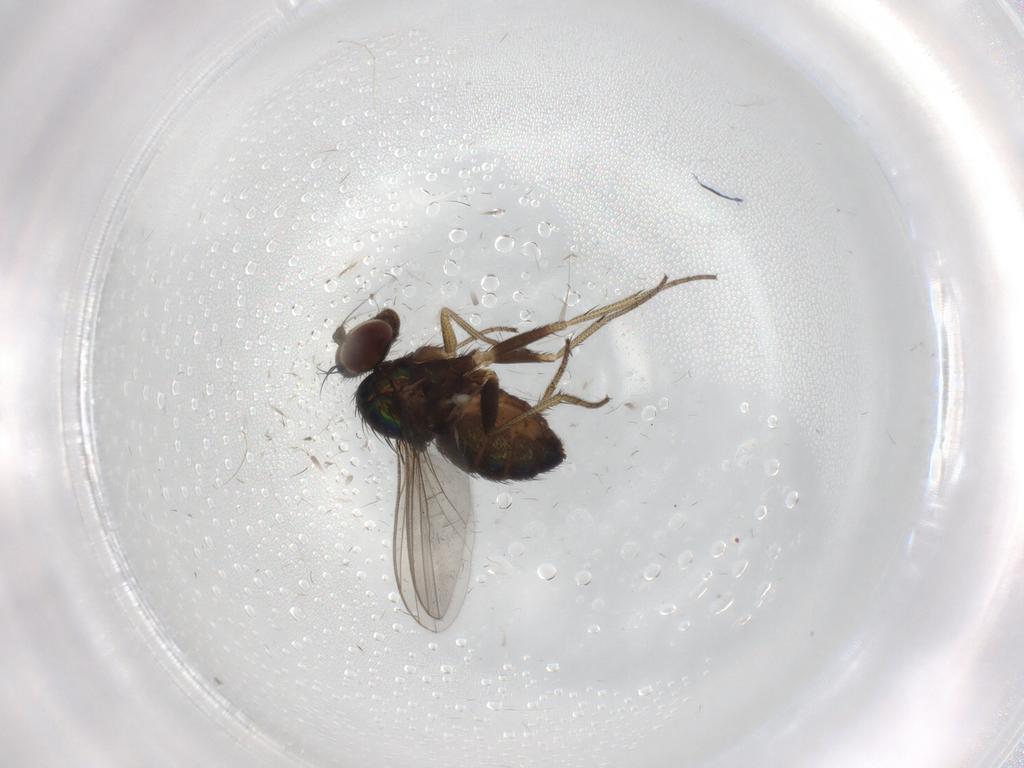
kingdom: Animalia
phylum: Arthropoda
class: Insecta
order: Diptera
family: Dolichopodidae
